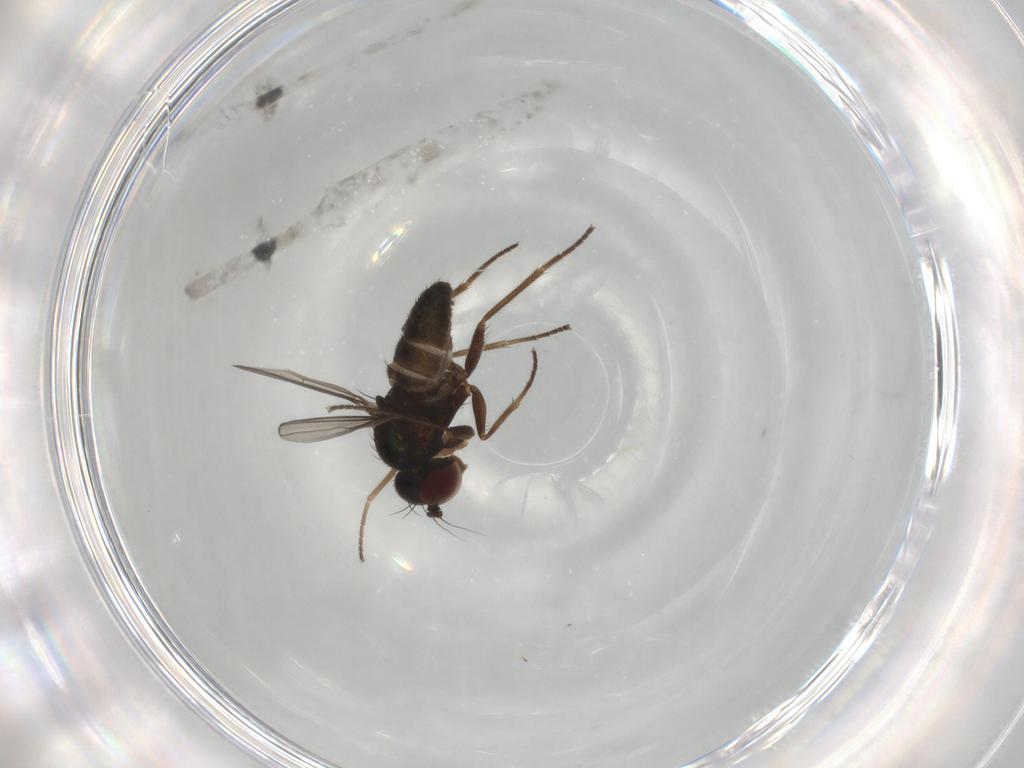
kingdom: Animalia
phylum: Arthropoda
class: Insecta
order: Diptera
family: Dolichopodidae
